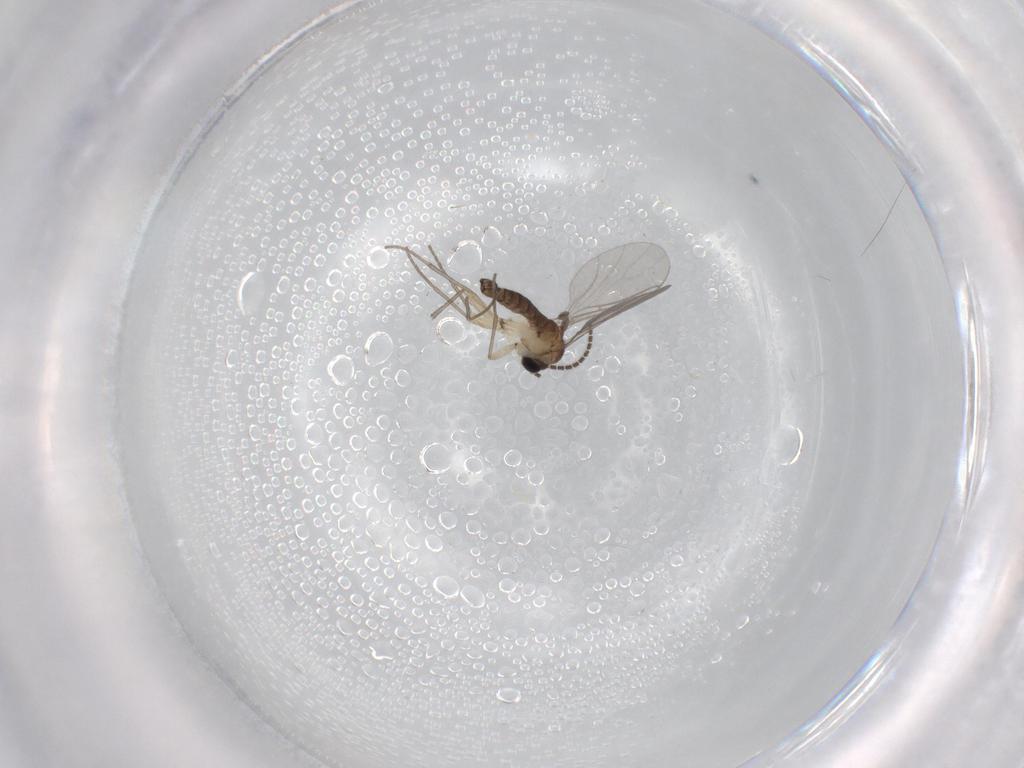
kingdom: Animalia
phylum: Arthropoda
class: Insecta
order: Diptera
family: Sciaridae
